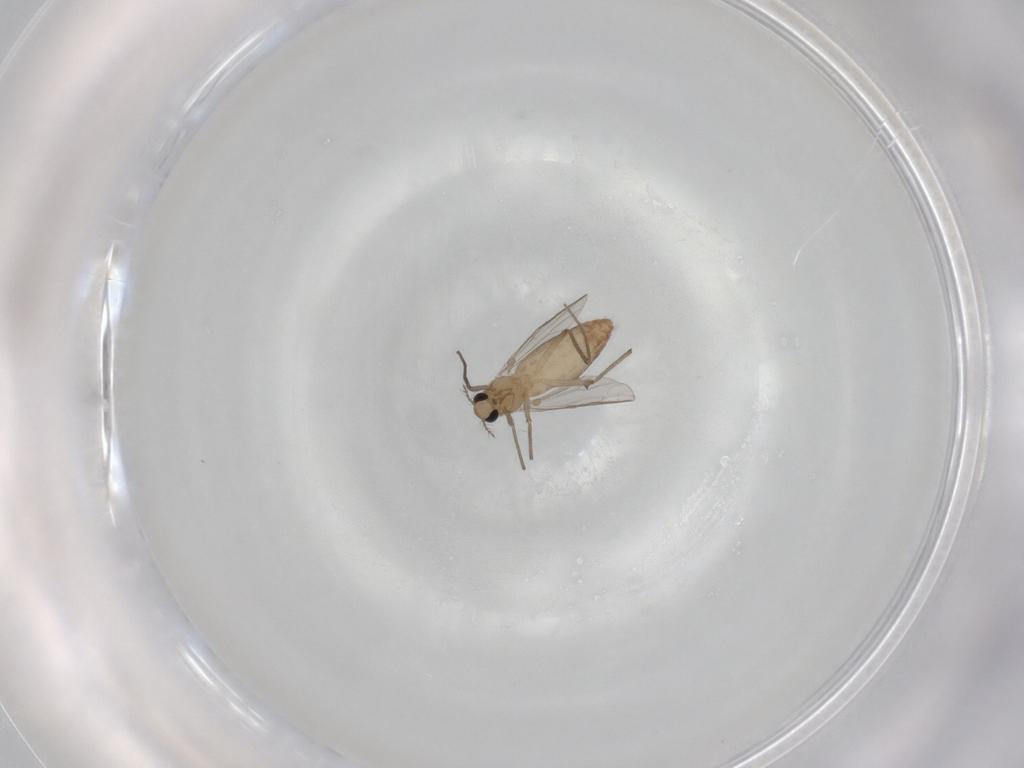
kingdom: Animalia
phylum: Arthropoda
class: Insecta
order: Diptera
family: Chironomidae
